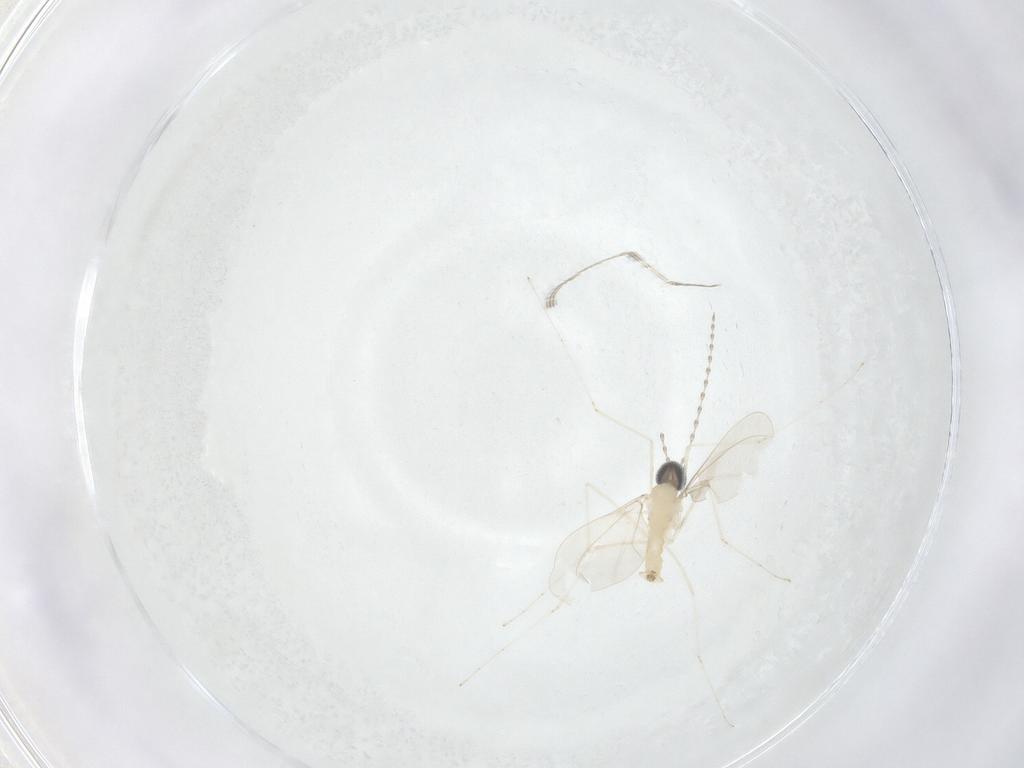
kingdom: Animalia
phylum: Arthropoda
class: Insecta
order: Diptera
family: Cecidomyiidae
